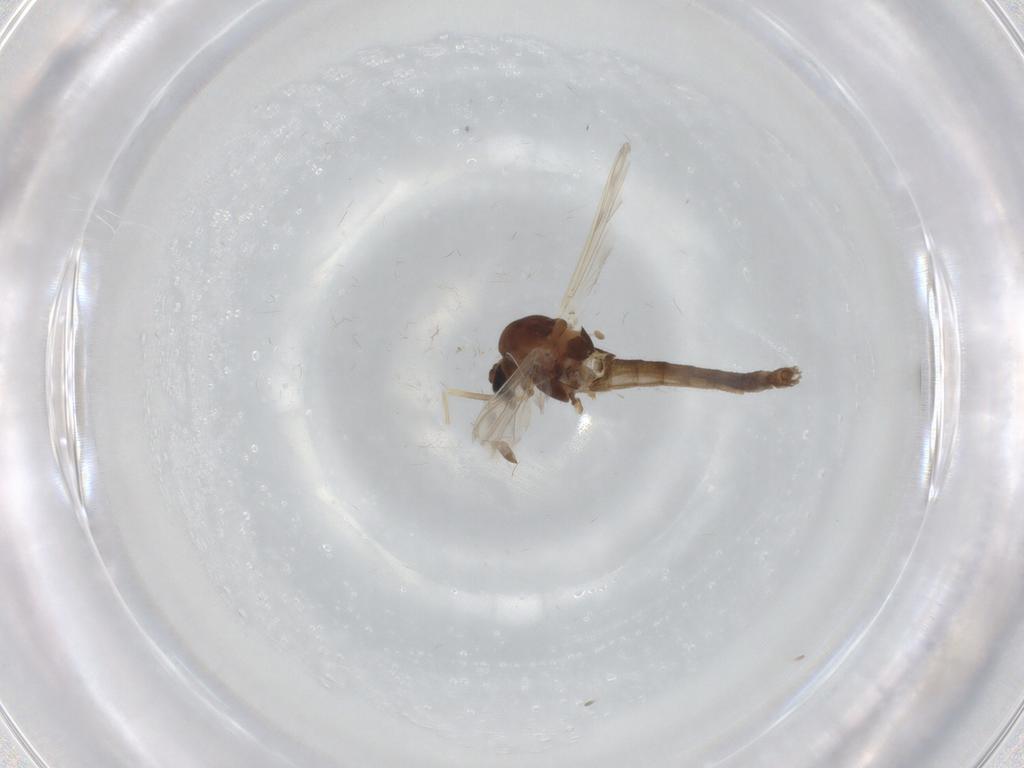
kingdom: Animalia
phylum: Arthropoda
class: Insecta
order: Diptera
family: Chironomidae
